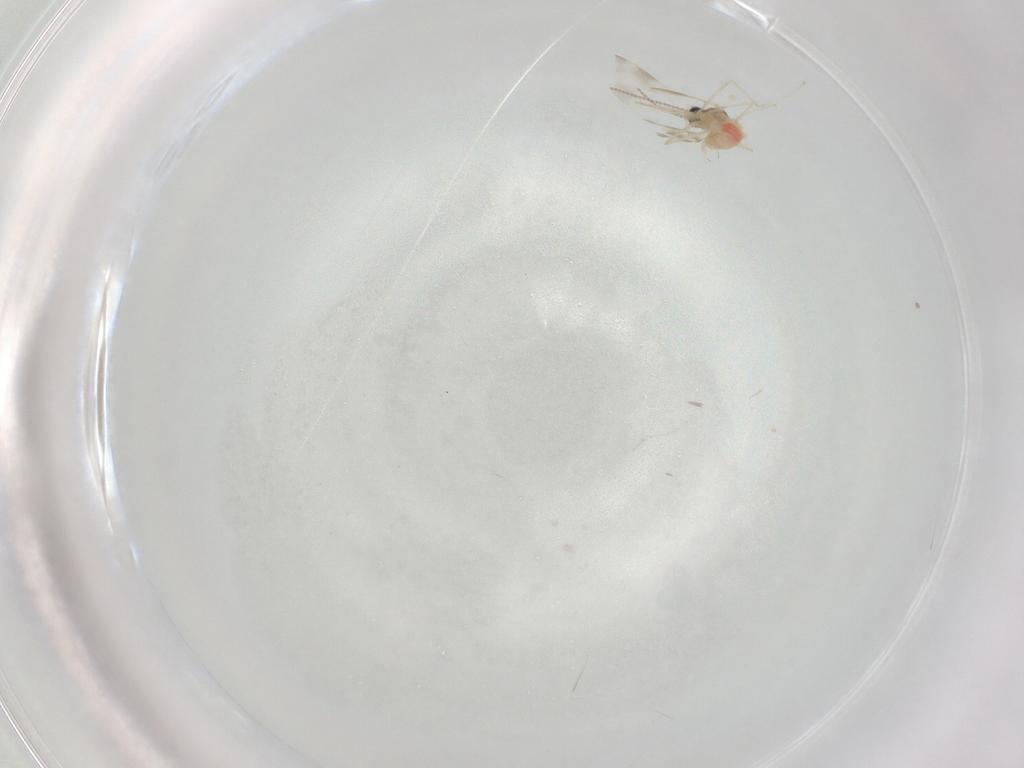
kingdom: Animalia
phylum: Arthropoda
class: Insecta
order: Diptera
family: Cecidomyiidae
